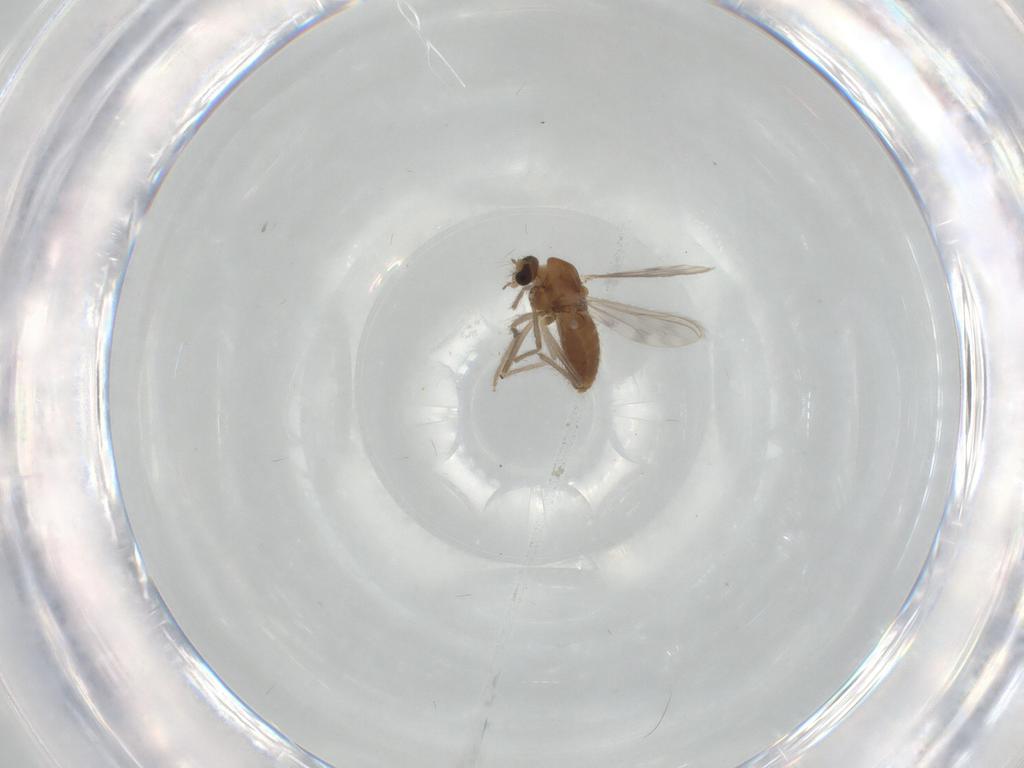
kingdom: Animalia
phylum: Arthropoda
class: Insecta
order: Diptera
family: Chironomidae
